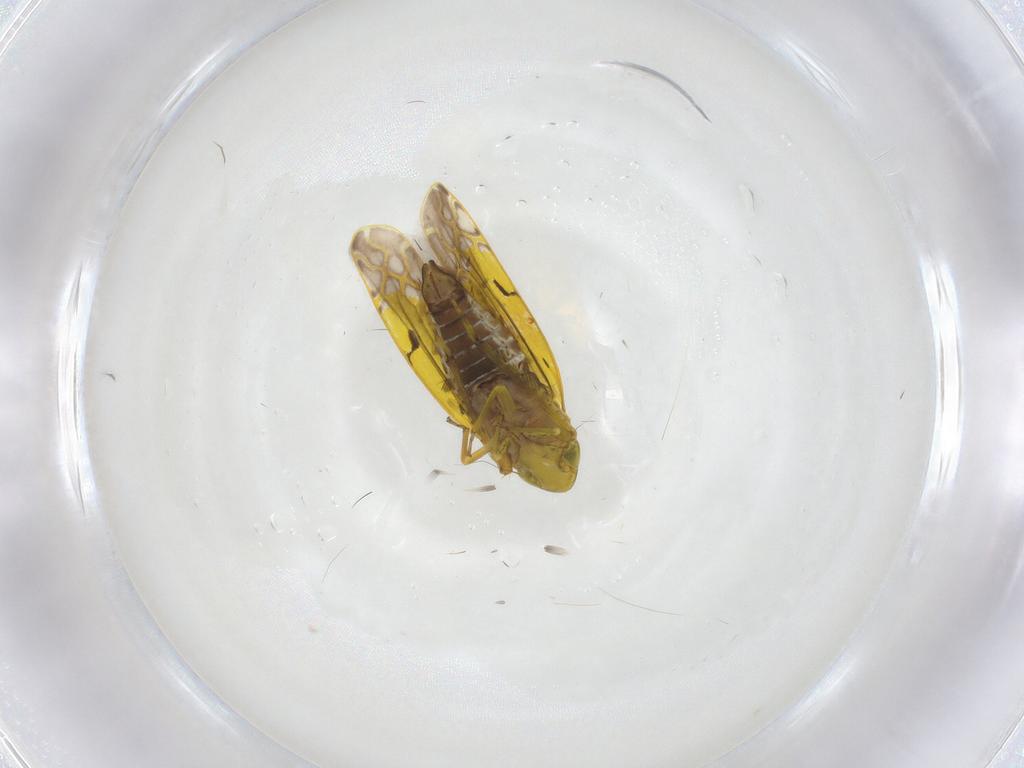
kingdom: Animalia
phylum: Arthropoda
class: Insecta
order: Hemiptera
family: Cicadellidae
